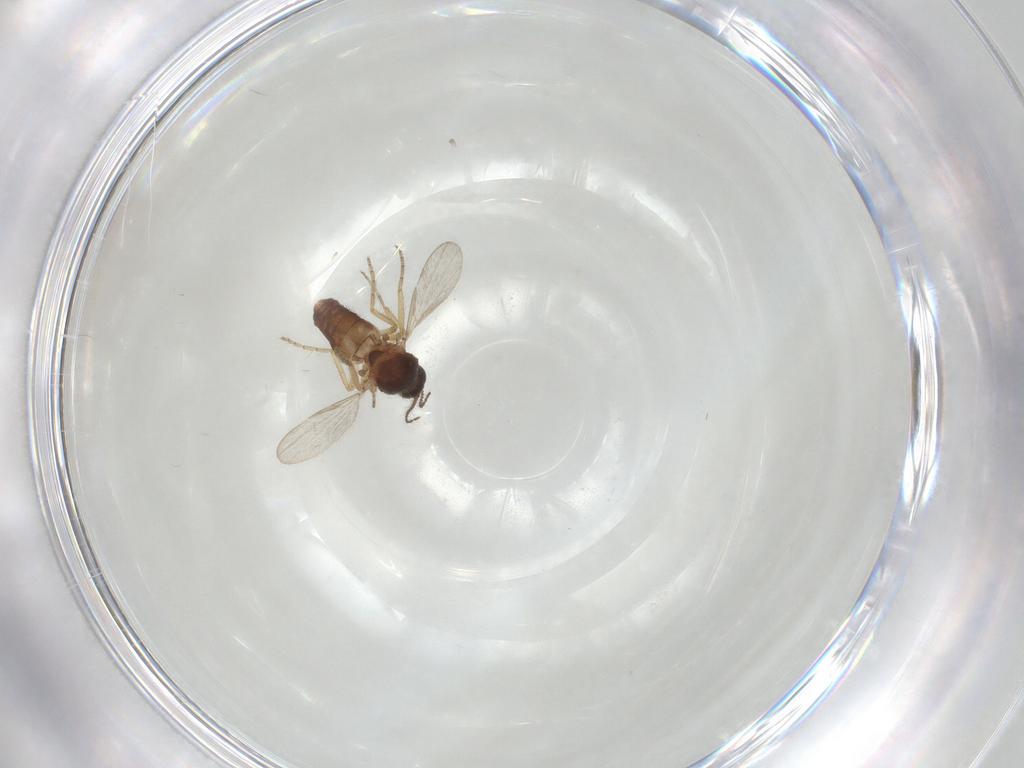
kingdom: Animalia
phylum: Arthropoda
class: Insecta
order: Diptera
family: Ceratopogonidae
